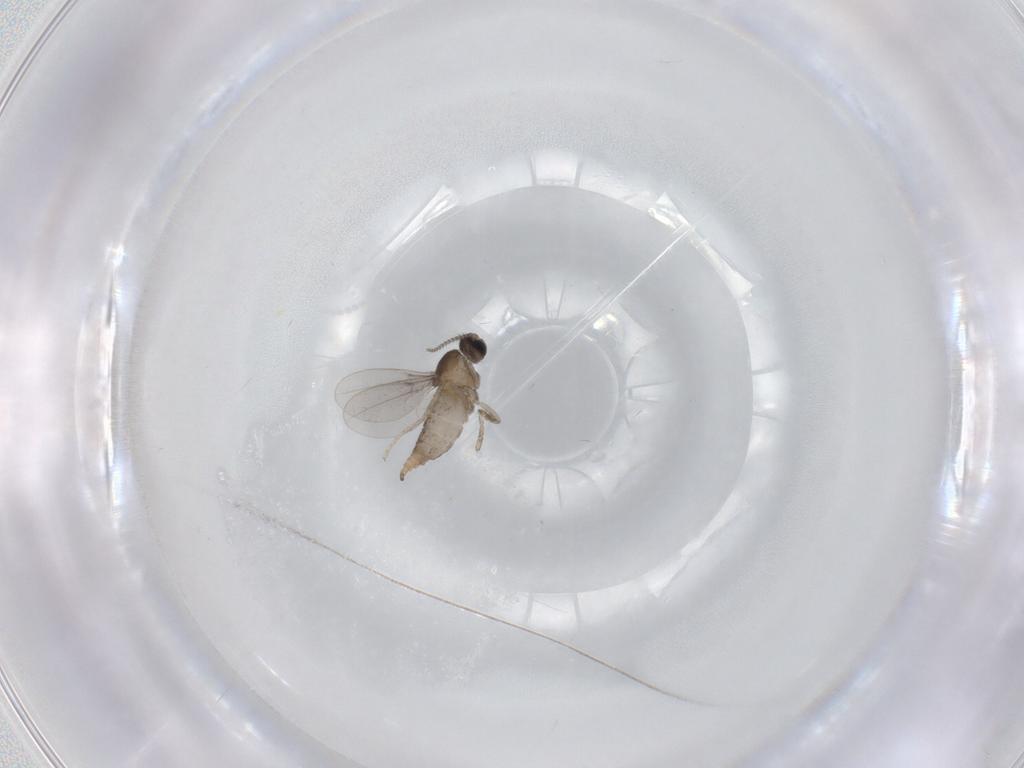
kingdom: Animalia
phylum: Arthropoda
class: Insecta
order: Diptera
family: Cecidomyiidae
